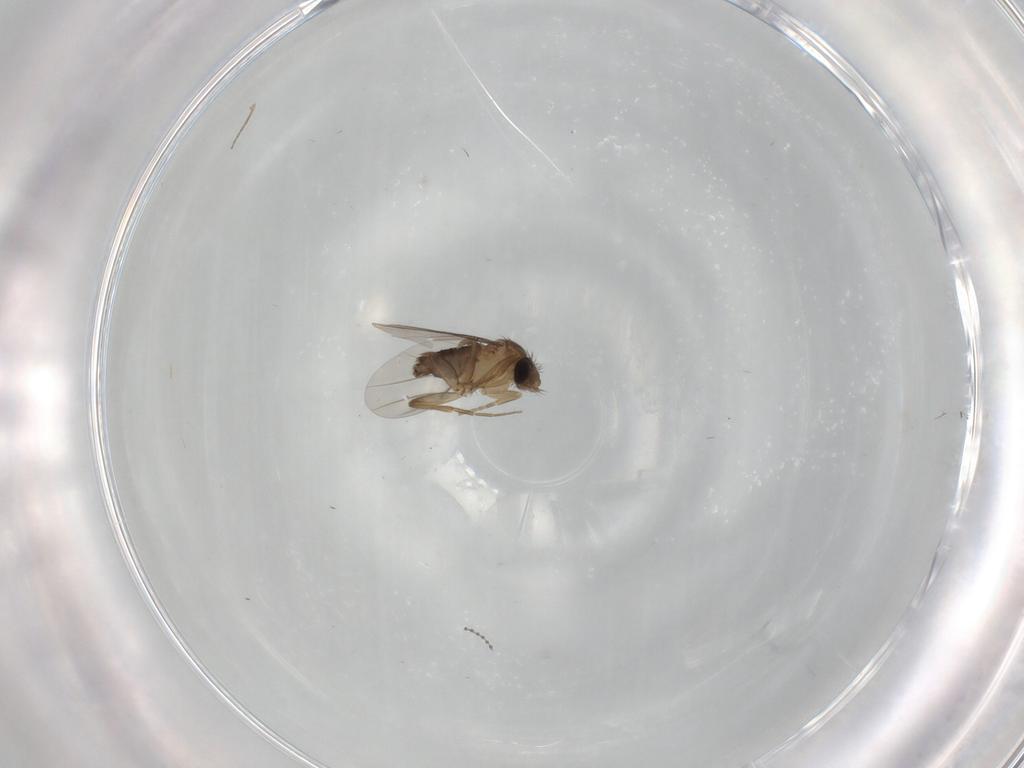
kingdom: Animalia
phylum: Arthropoda
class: Insecta
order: Diptera
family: Phoridae
